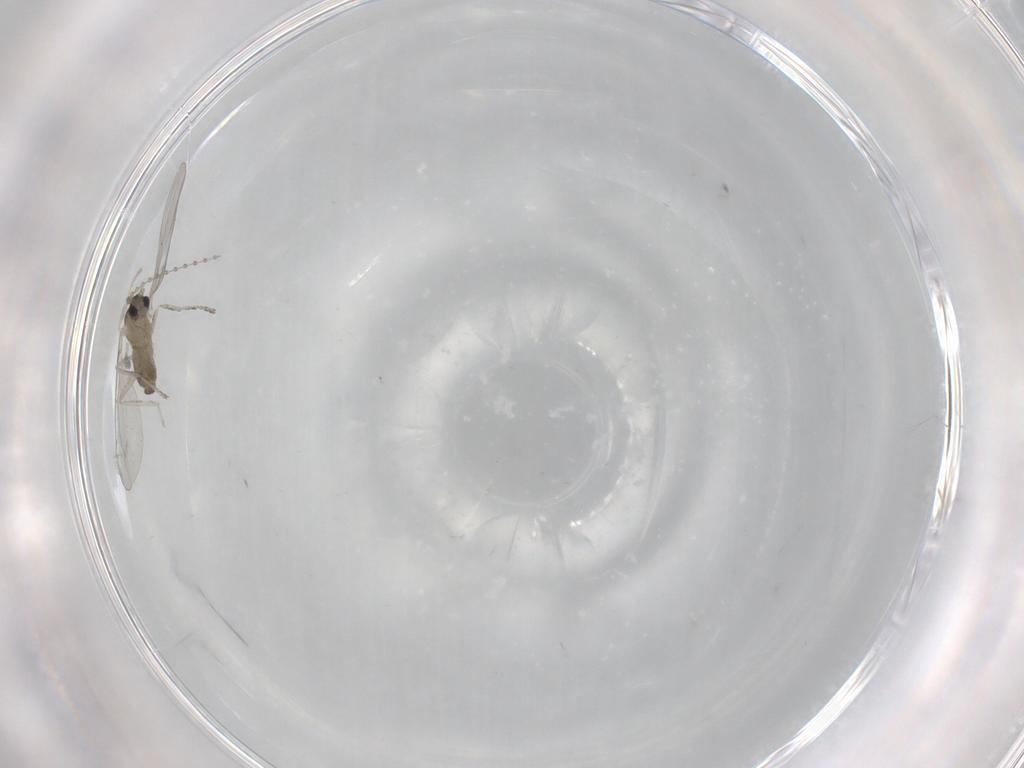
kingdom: Animalia
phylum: Arthropoda
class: Insecta
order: Diptera
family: Cecidomyiidae
